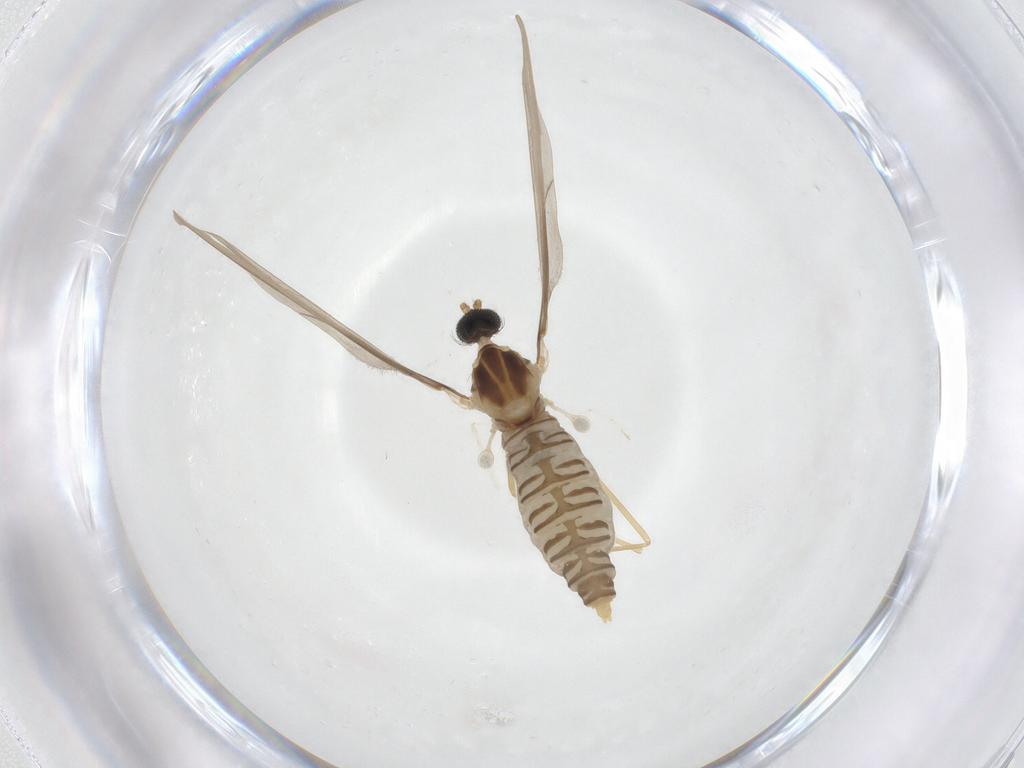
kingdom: Animalia
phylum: Arthropoda
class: Insecta
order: Diptera
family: Cecidomyiidae
